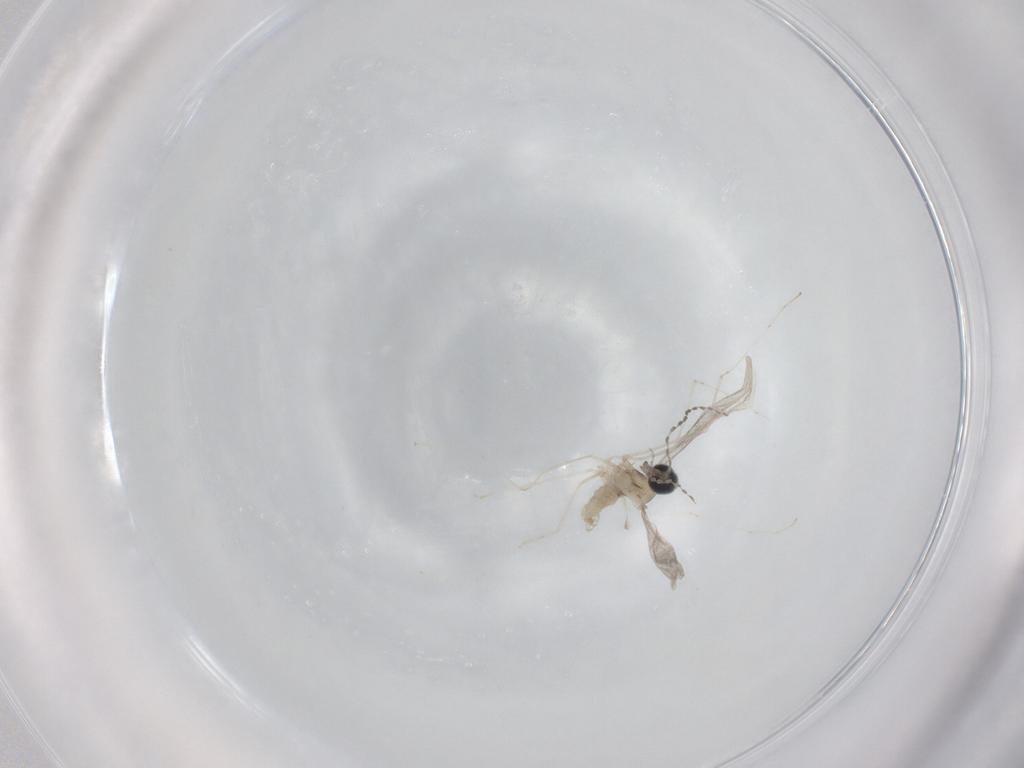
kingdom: Animalia
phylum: Arthropoda
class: Insecta
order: Diptera
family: Cecidomyiidae
